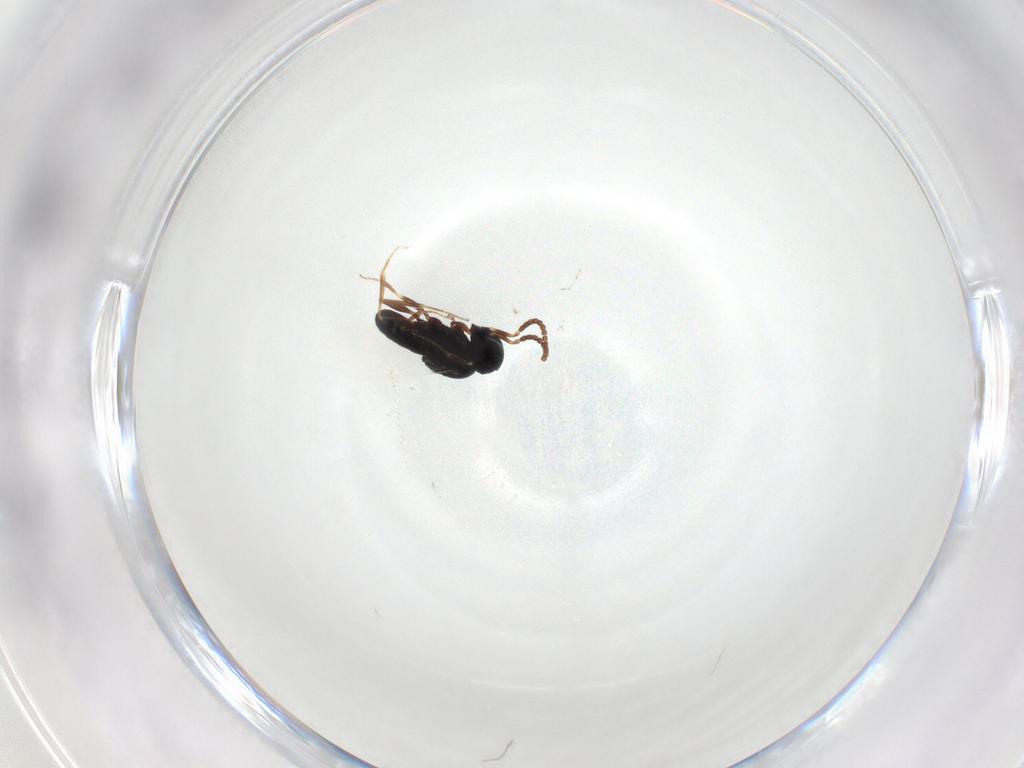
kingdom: Animalia
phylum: Arthropoda
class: Insecta
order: Hymenoptera
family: Scelionidae
